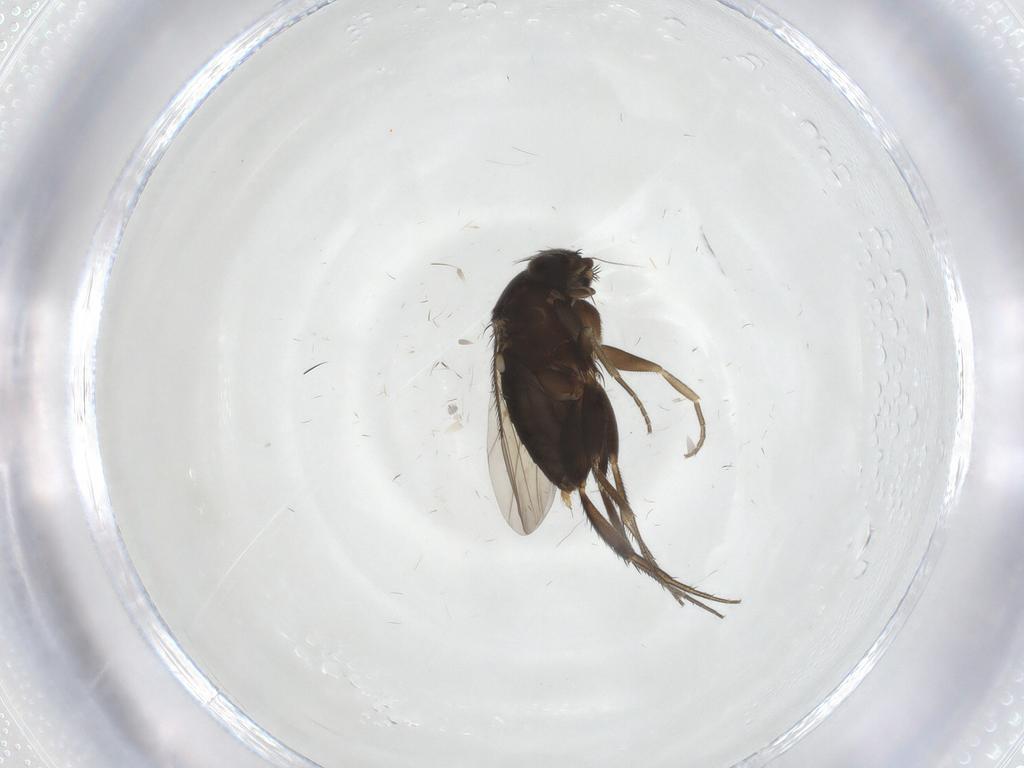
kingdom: Animalia
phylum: Arthropoda
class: Insecta
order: Diptera
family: Phoridae
